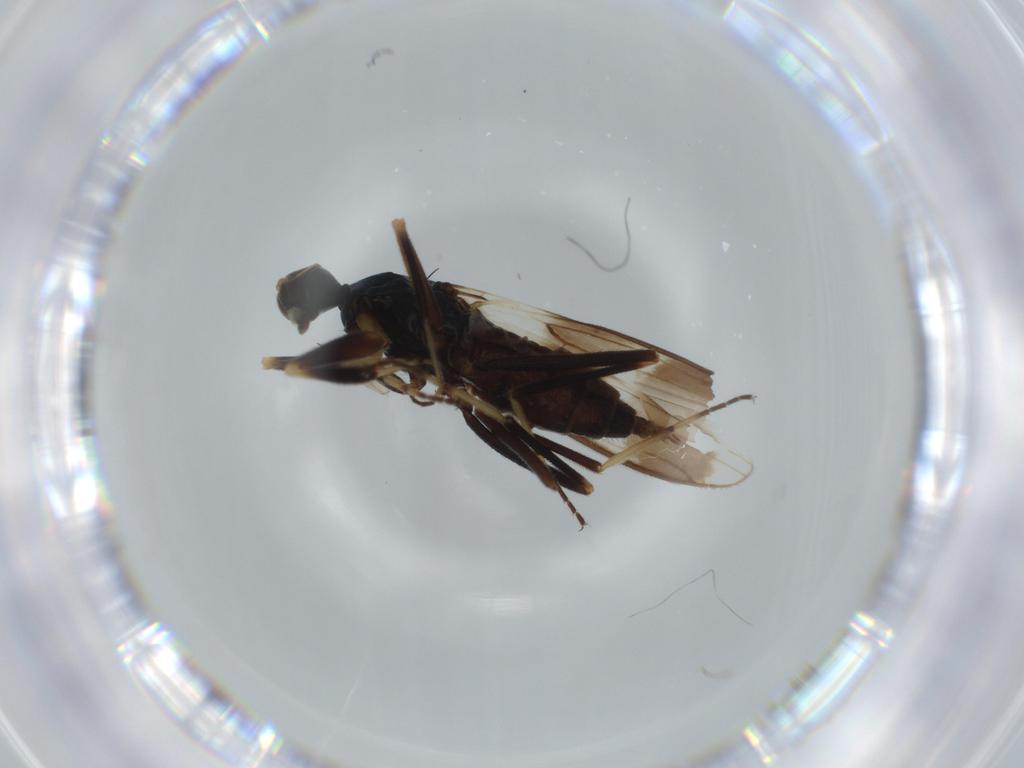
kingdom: Animalia
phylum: Arthropoda
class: Insecta
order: Diptera
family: Hybotidae
